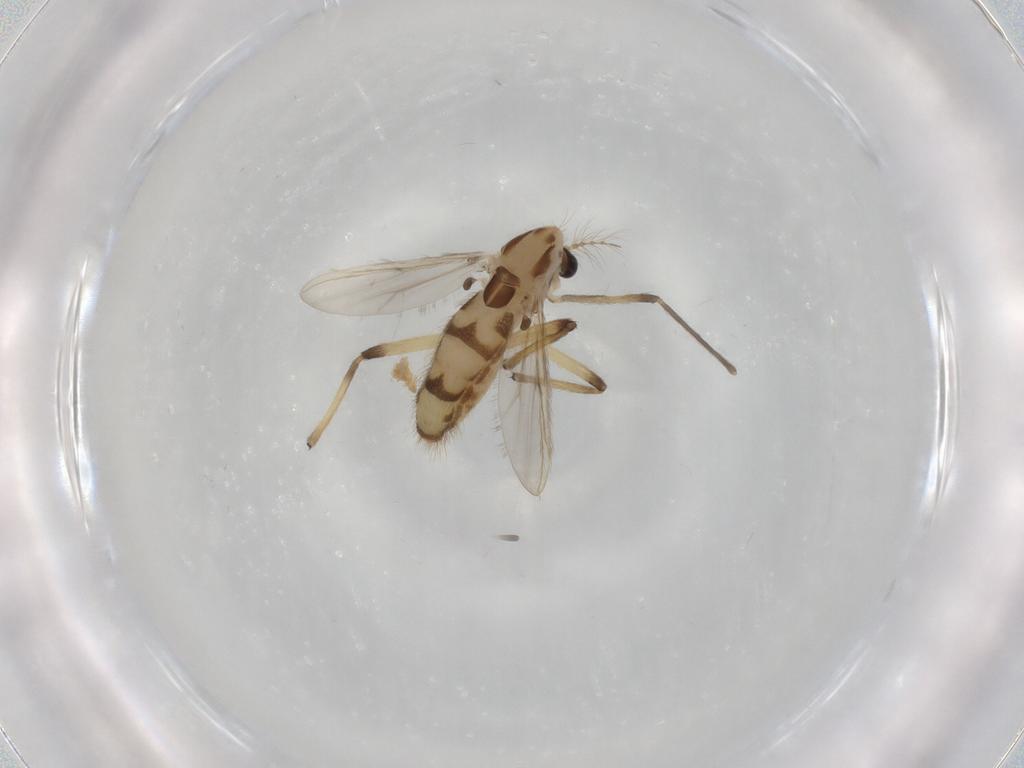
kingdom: Animalia
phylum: Arthropoda
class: Insecta
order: Diptera
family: Chironomidae
